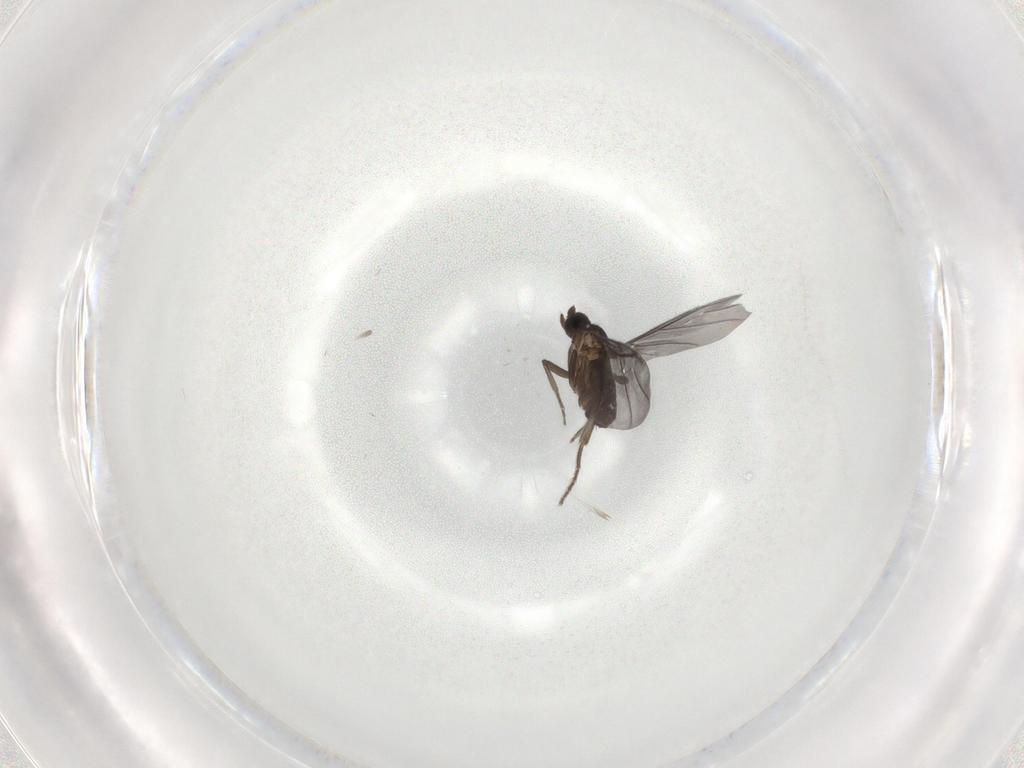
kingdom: Animalia
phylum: Arthropoda
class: Insecta
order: Diptera
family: Phoridae
